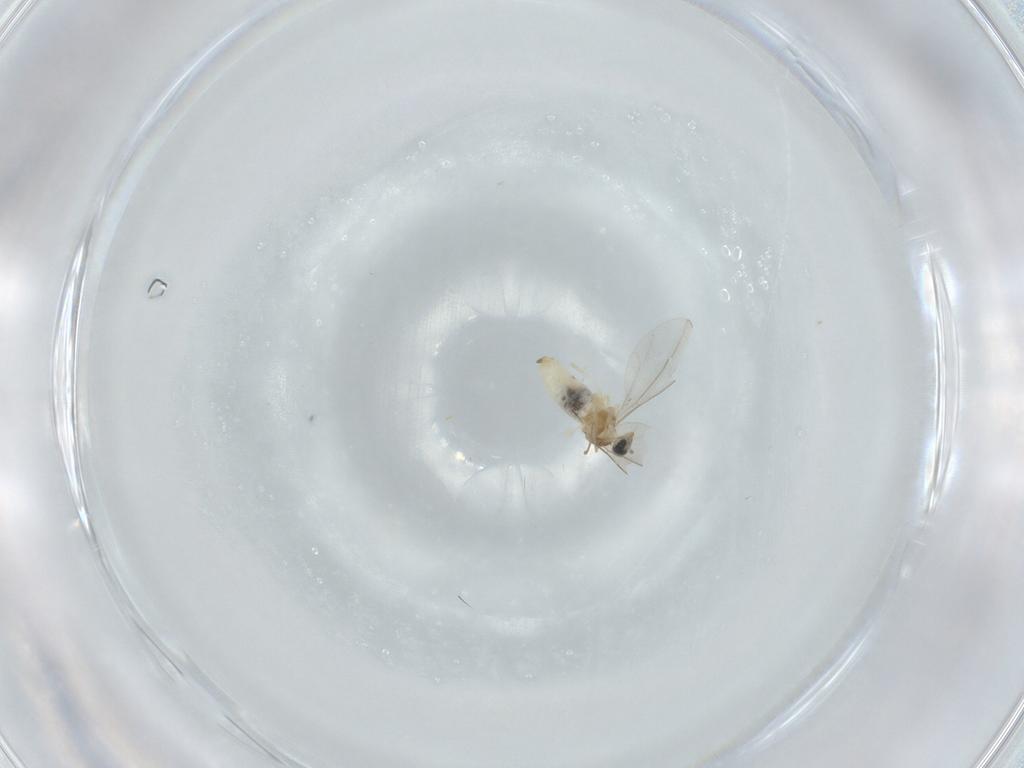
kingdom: Animalia
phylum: Arthropoda
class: Insecta
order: Diptera
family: Cecidomyiidae
